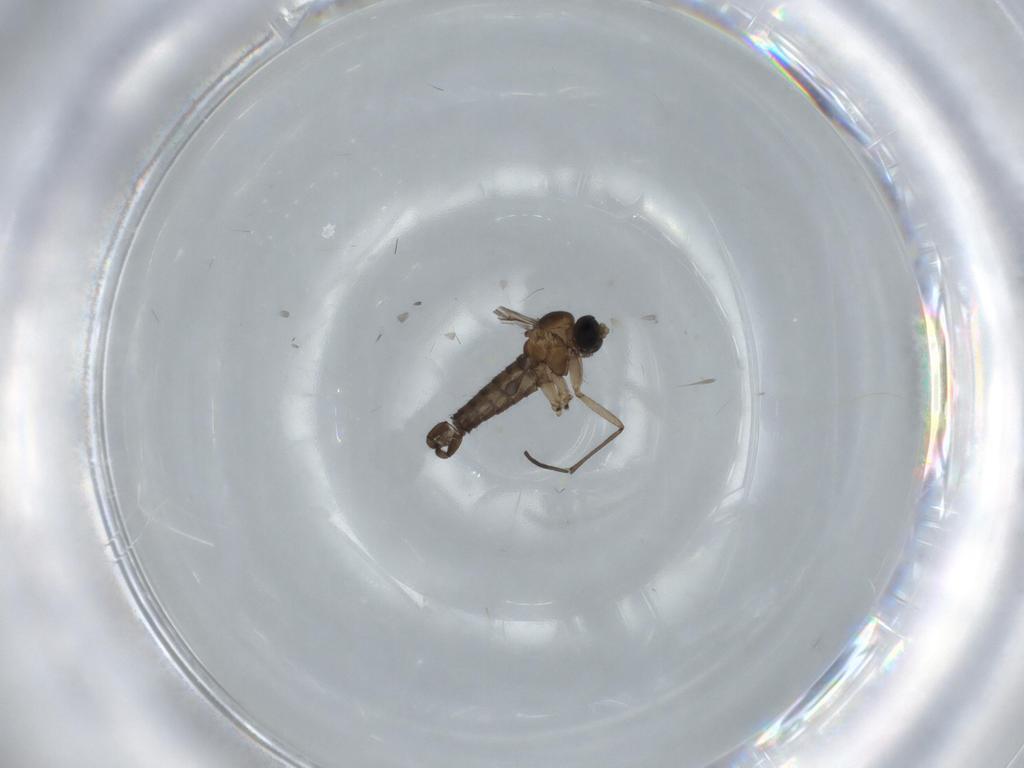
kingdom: Animalia
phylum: Arthropoda
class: Insecta
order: Diptera
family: Sciaridae
